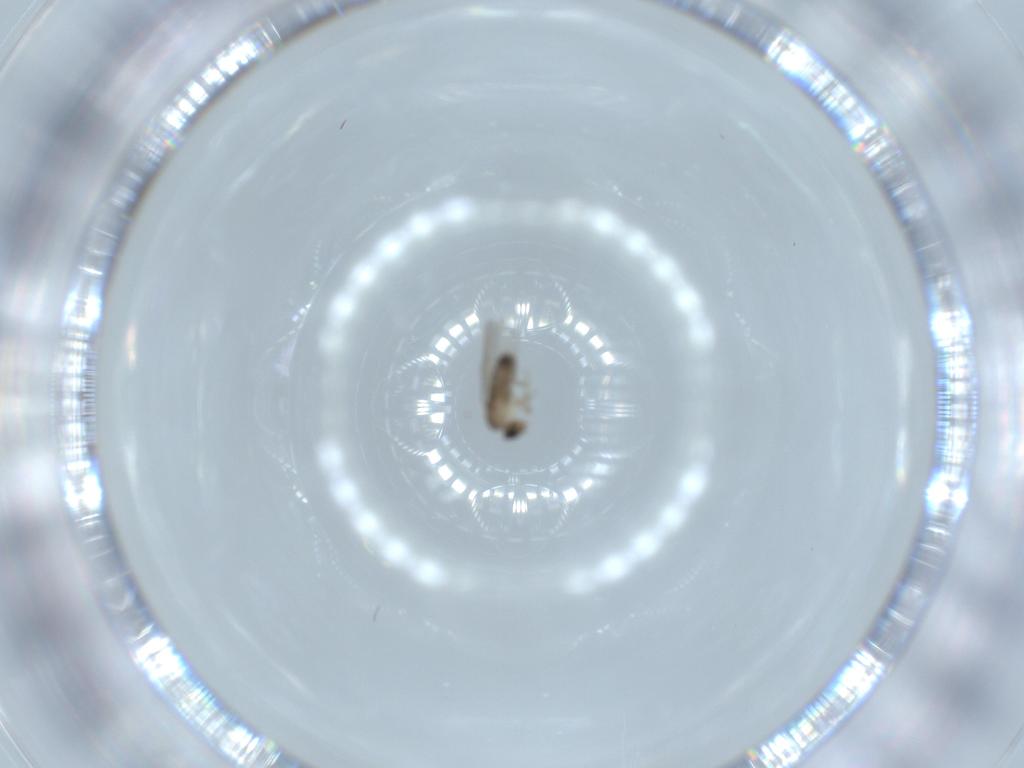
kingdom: Animalia
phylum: Arthropoda
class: Insecta
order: Diptera
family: Phoridae
